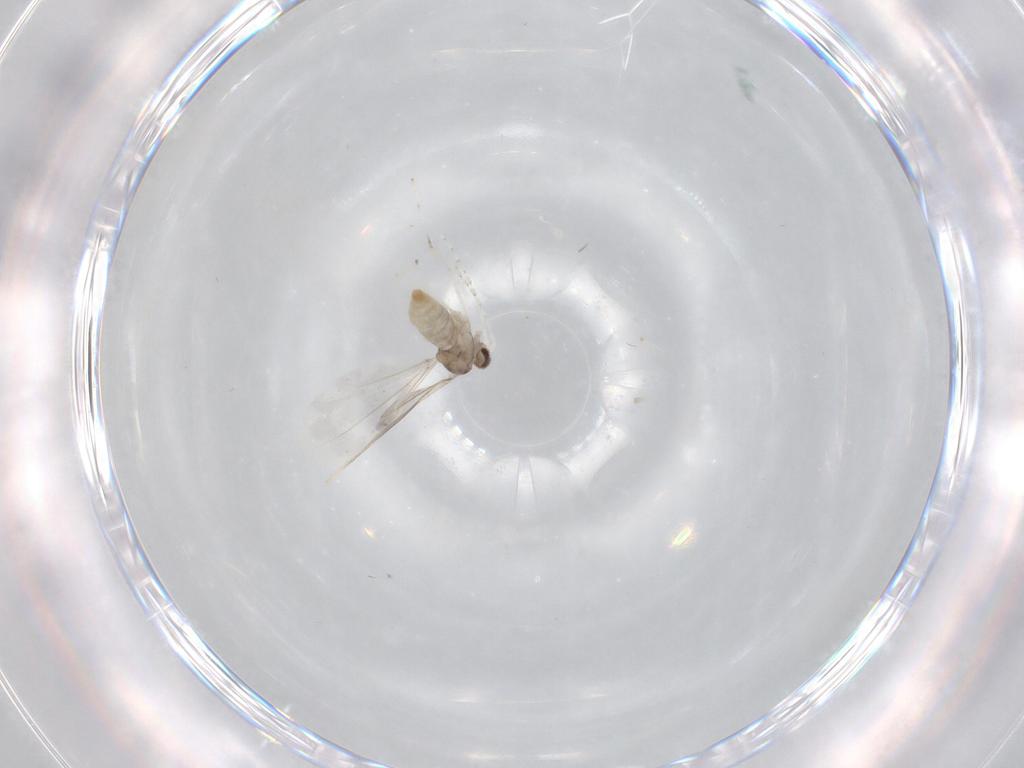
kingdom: Animalia
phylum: Arthropoda
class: Insecta
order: Diptera
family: Cecidomyiidae
